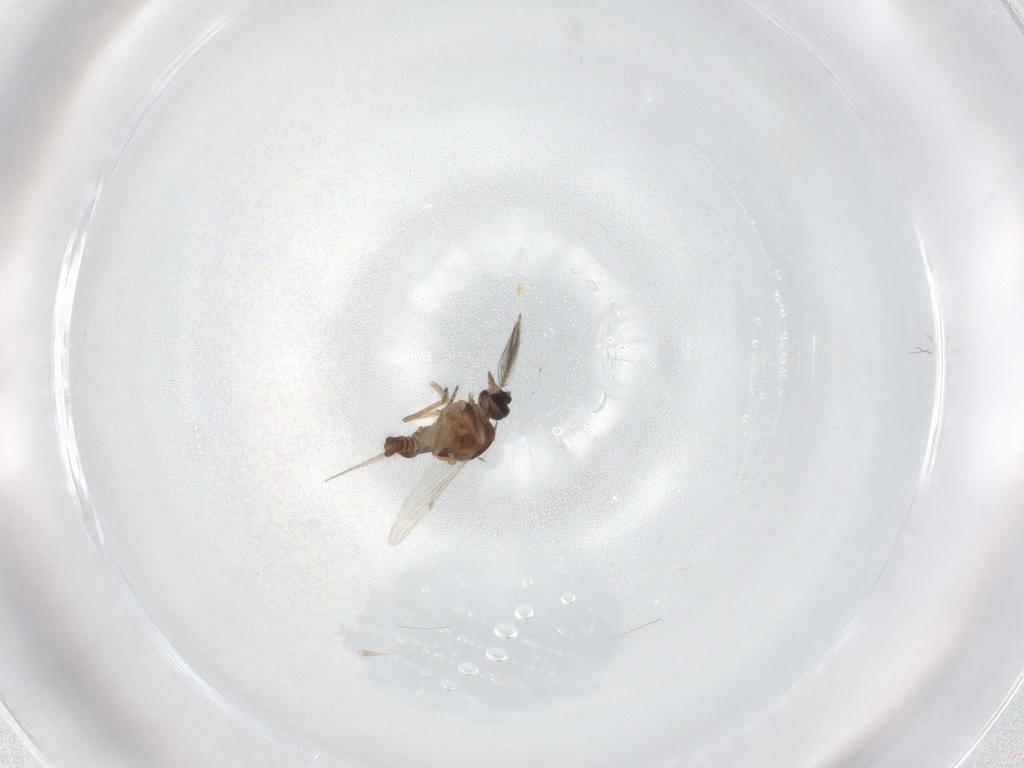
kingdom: Animalia
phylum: Arthropoda
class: Insecta
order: Diptera
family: Ceratopogonidae
